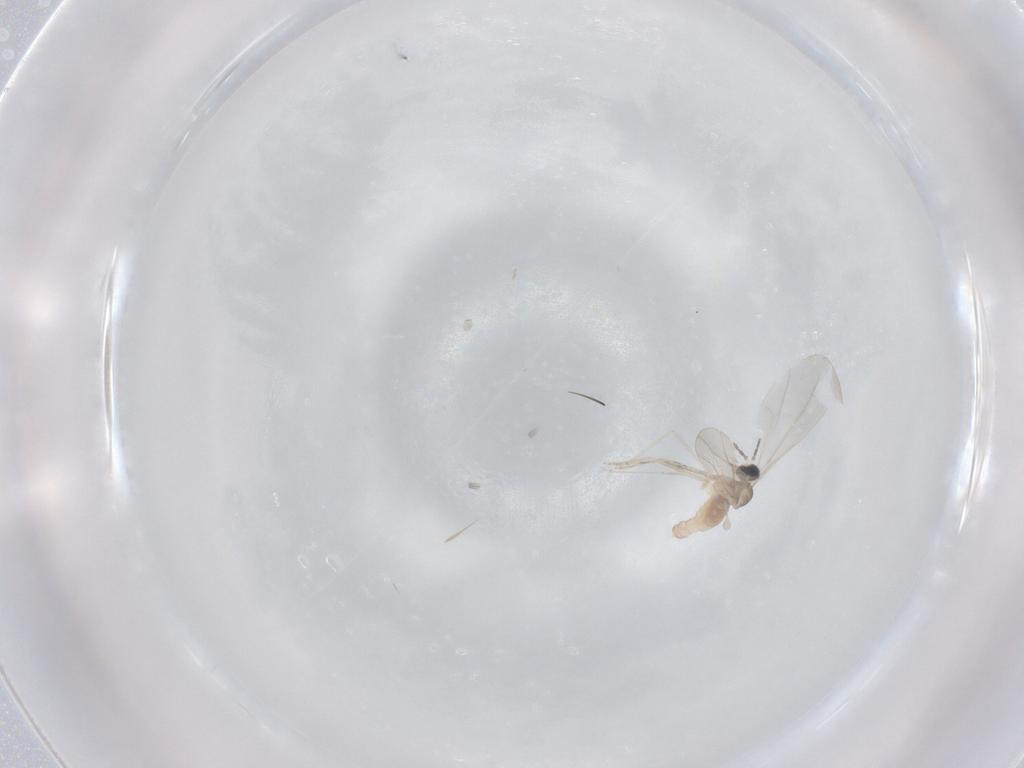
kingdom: Animalia
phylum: Arthropoda
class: Insecta
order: Diptera
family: Cecidomyiidae
